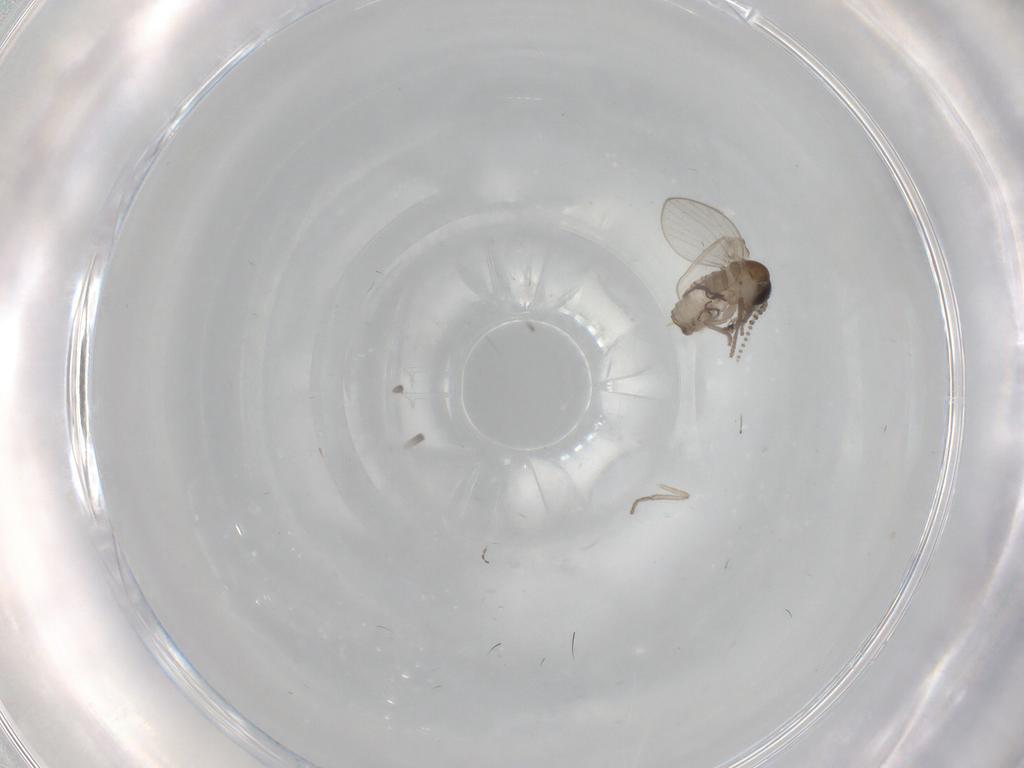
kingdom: Animalia
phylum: Arthropoda
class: Insecta
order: Diptera
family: Psychodidae
